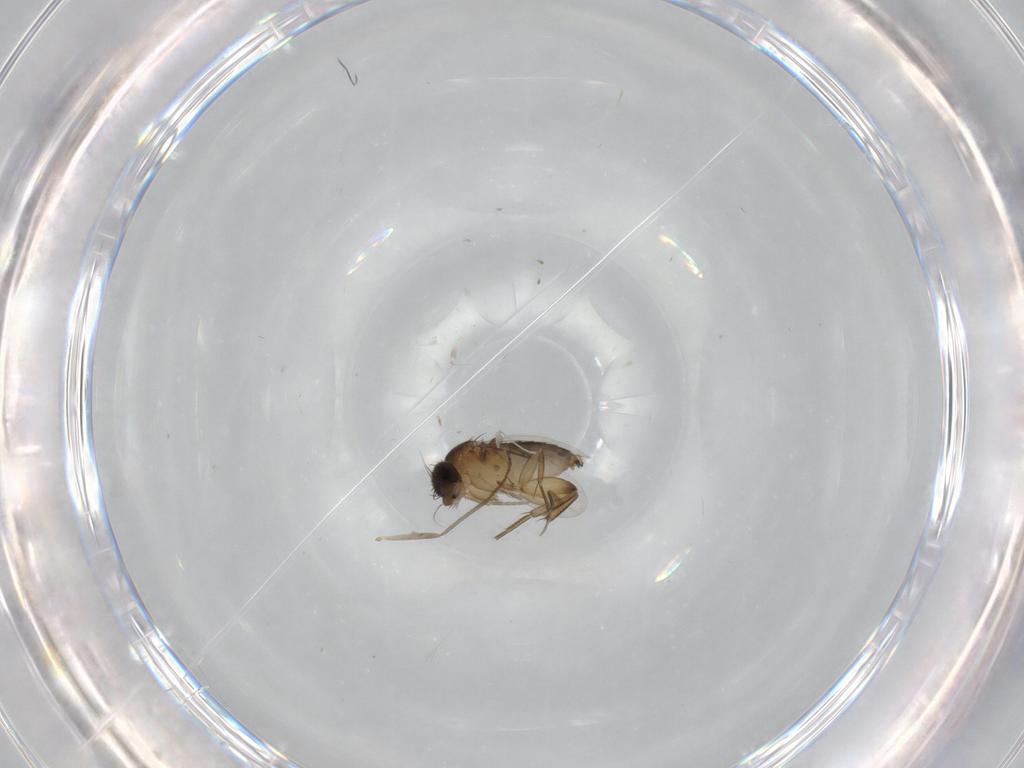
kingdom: Animalia
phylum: Arthropoda
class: Insecta
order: Diptera
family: Phoridae
